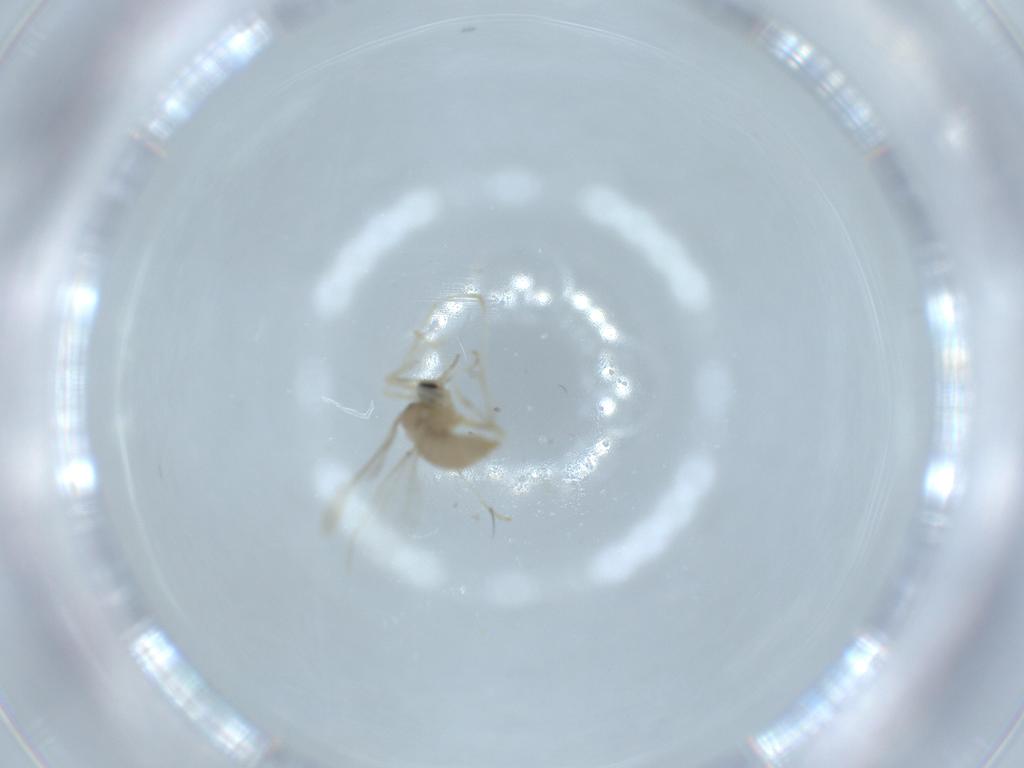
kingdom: Animalia
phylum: Arthropoda
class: Insecta
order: Diptera
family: Cecidomyiidae
